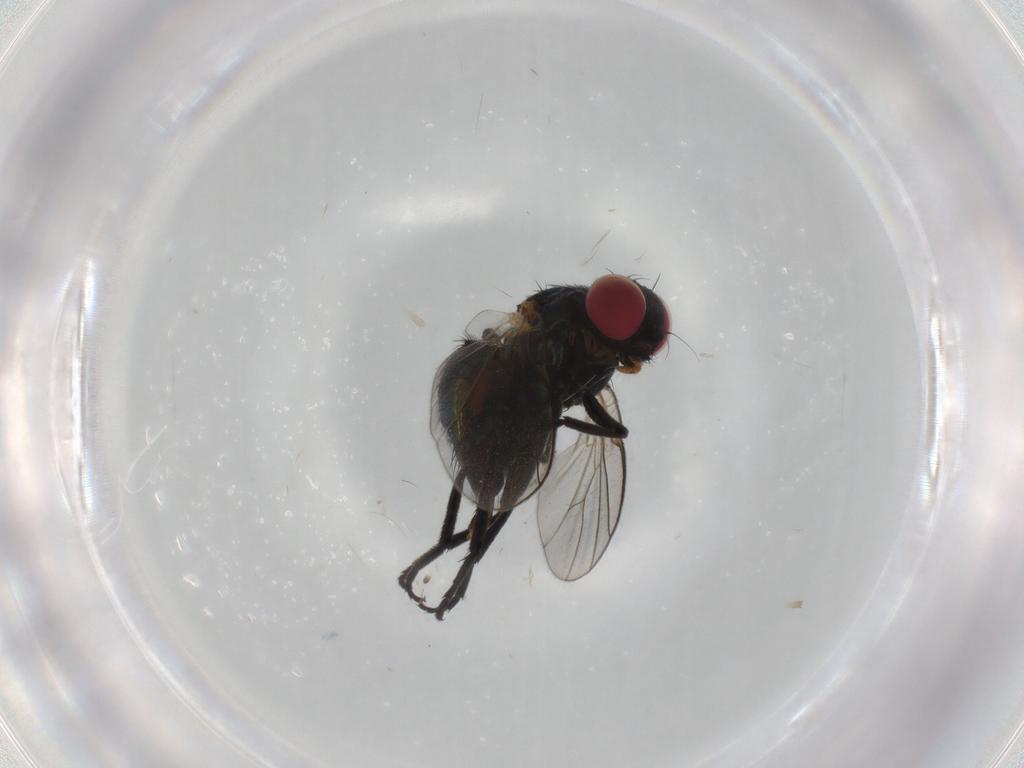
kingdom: Animalia
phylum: Arthropoda
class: Insecta
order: Diptera
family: Agromyzidae
